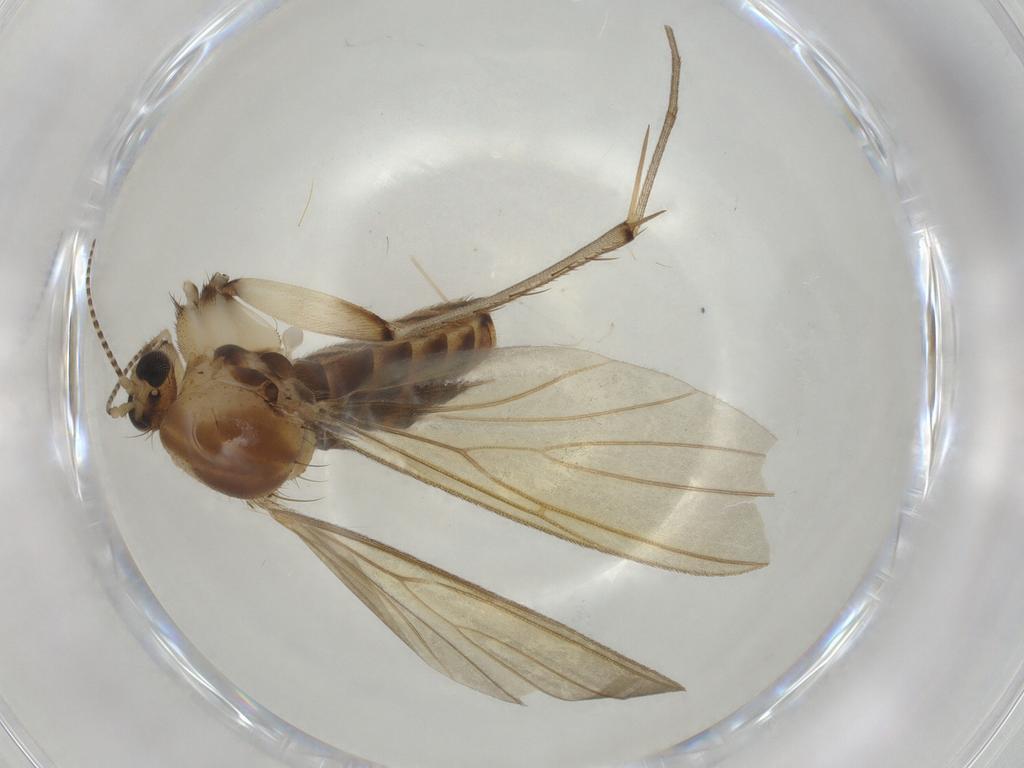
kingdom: Animalia
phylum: Arthropoda
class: Insecta
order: Diptera
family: Mycetophilidae
